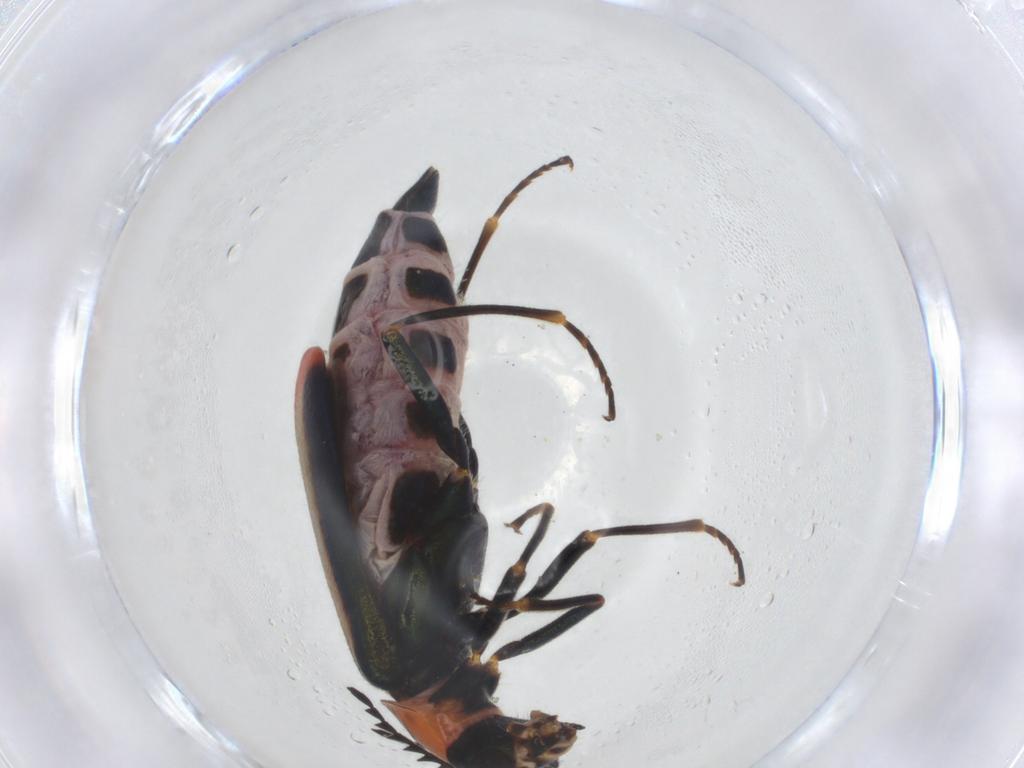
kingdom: Animalia
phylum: Arthropoda
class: Insecta
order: Coleoptera
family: Melyridae
